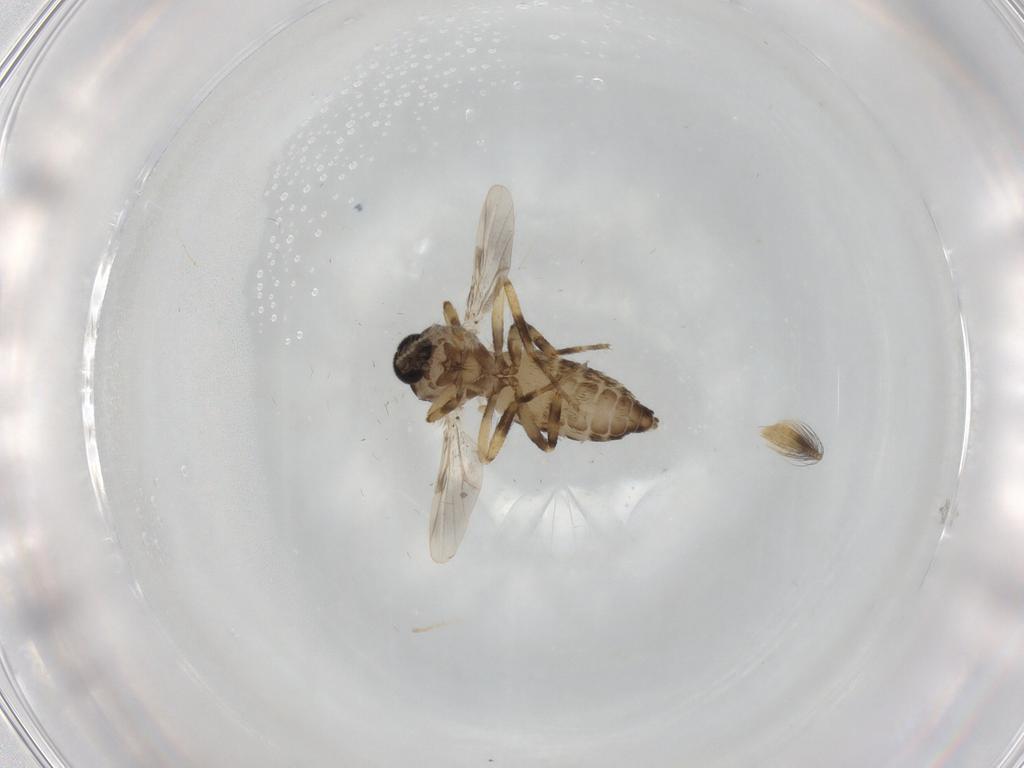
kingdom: Animalia
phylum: Arthropoda
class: Insecta
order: Diptera
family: Ceratopogonidae
